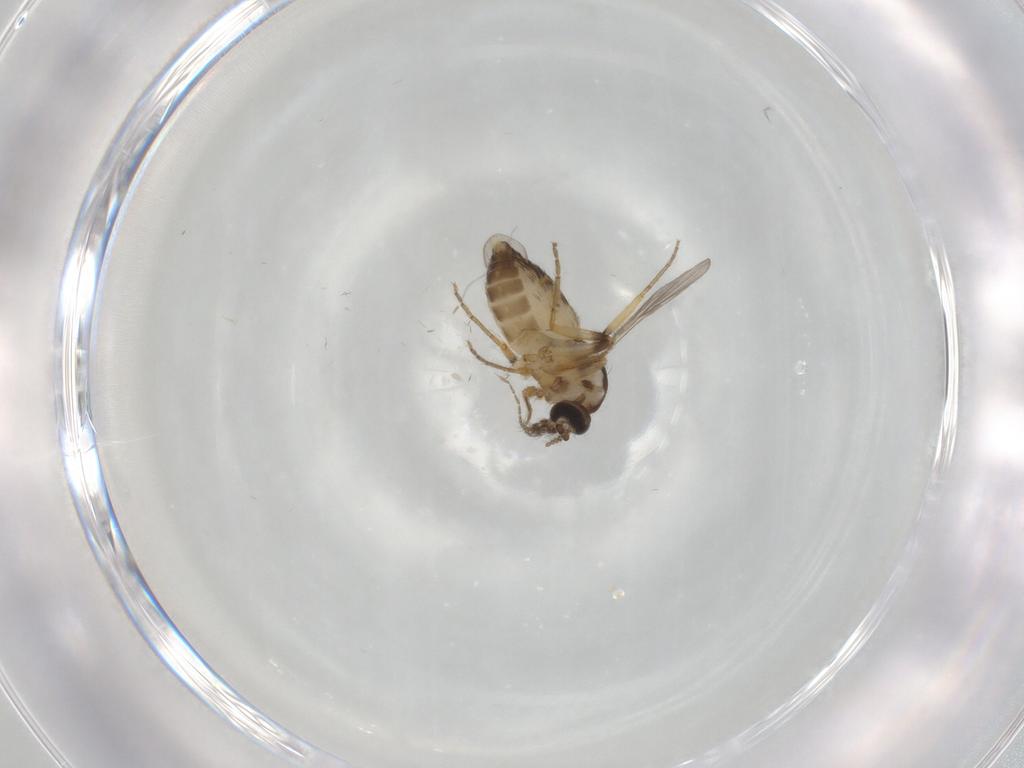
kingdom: Animalia
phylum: Arthropoda
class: Insecta
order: Diptera
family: Ceratopogonidae
